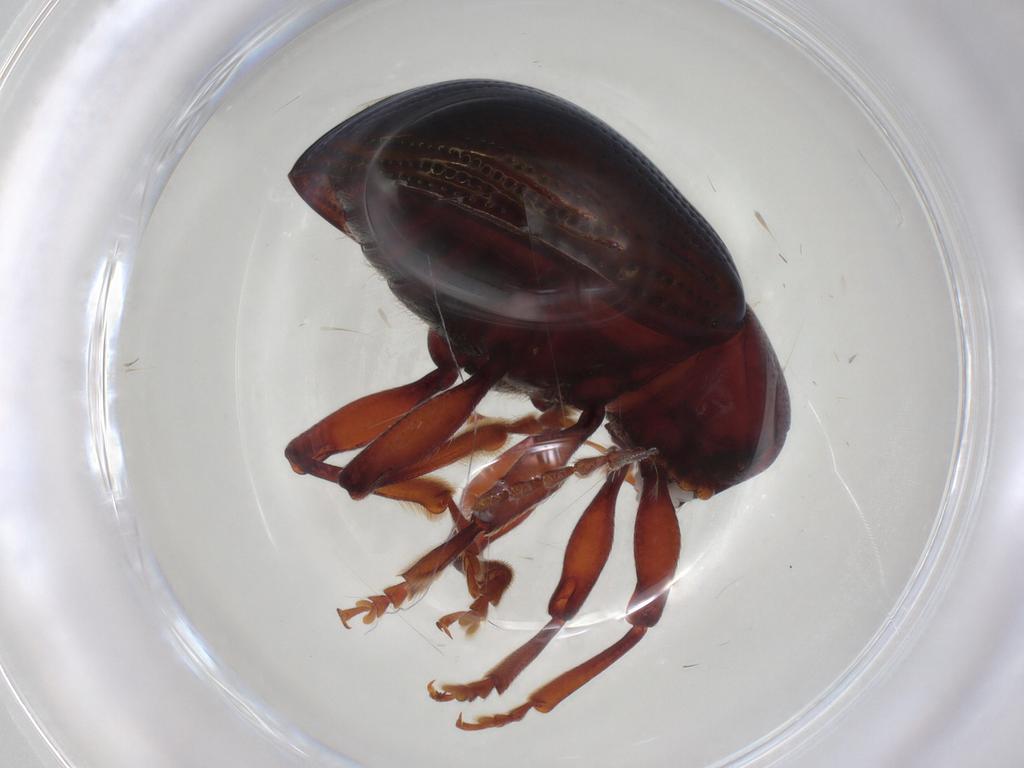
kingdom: Animalia
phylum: Arthropoda
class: Insecta
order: Coleoptera
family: Chrysomelidae
